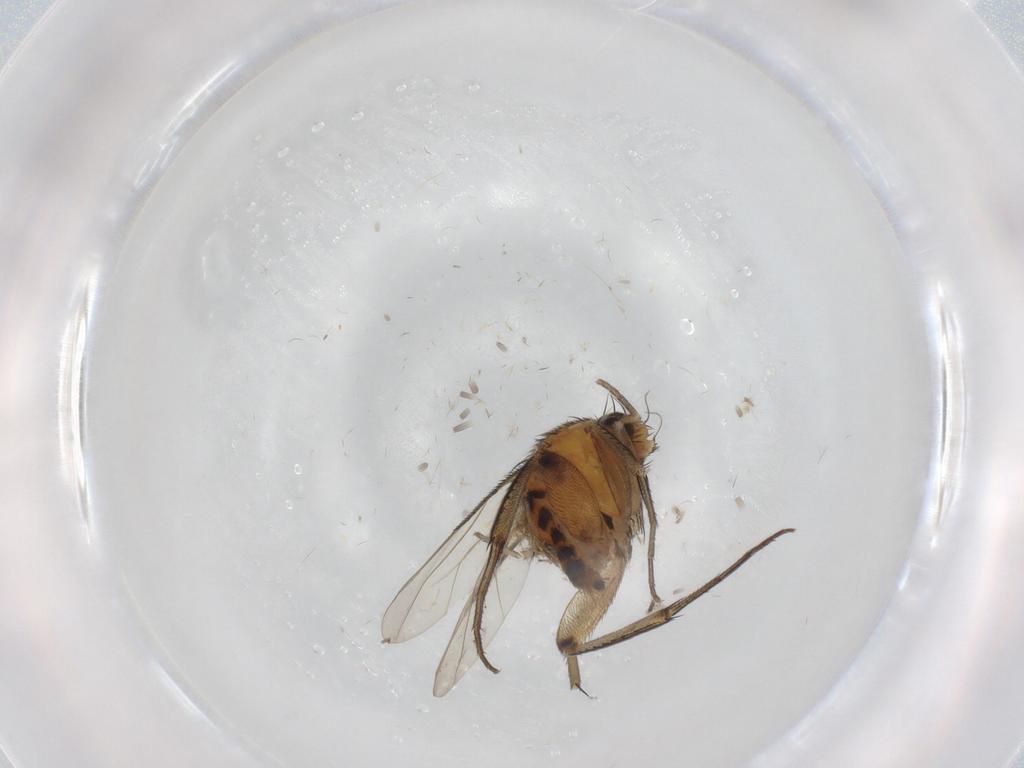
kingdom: Animalia
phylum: Arthropoda
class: Insecta
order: Diptera
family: Phoridae
